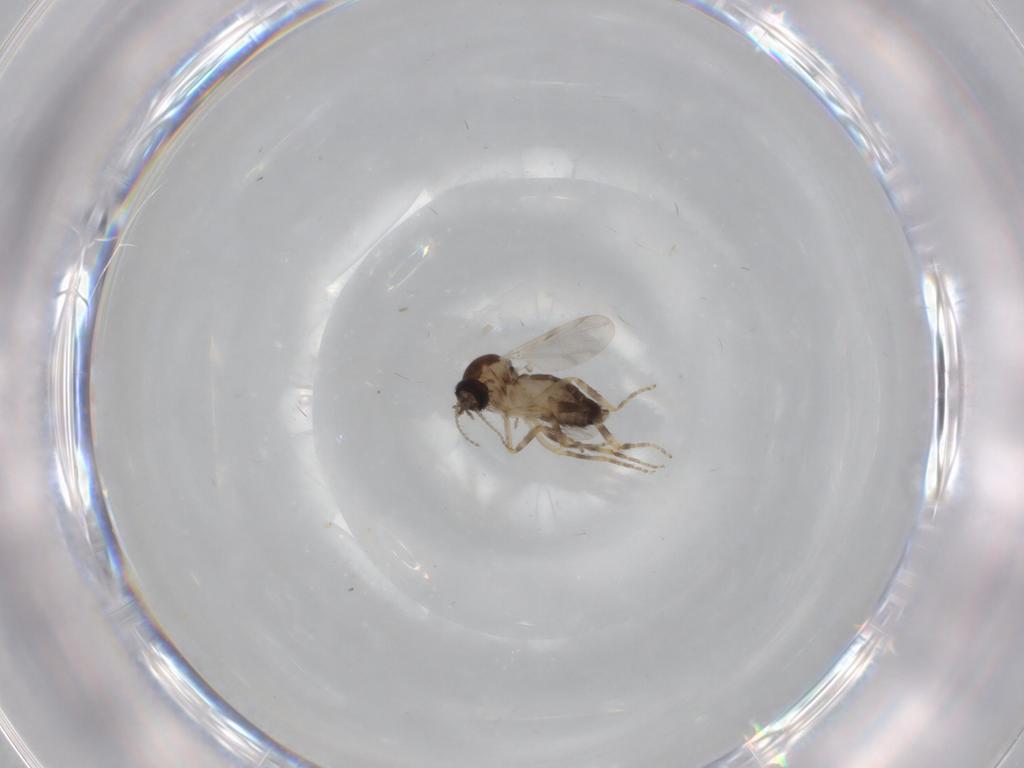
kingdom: Animalia
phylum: Arthropoda
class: Insecta
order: Diptera
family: Ceratopogonidae
